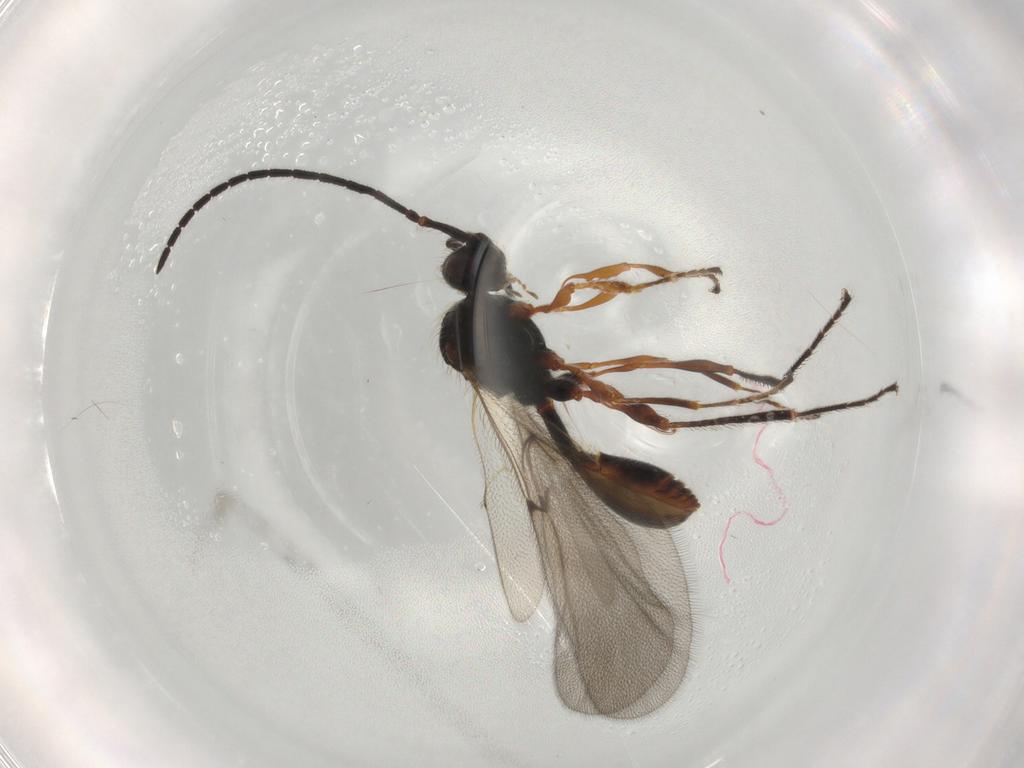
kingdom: Animalia
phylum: Arthropoda
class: Insecta
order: Hymenoptera
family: Diapriidae
